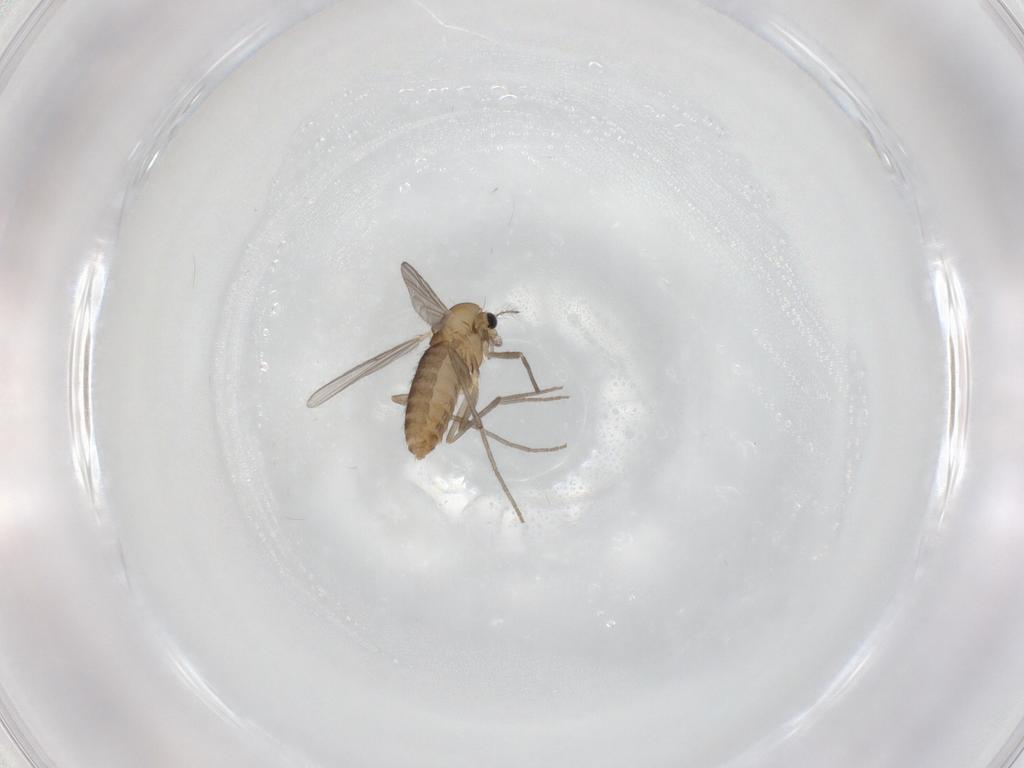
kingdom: Animalia
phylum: Arthropoda
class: Insecta
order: Diptera
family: Chironomidae
